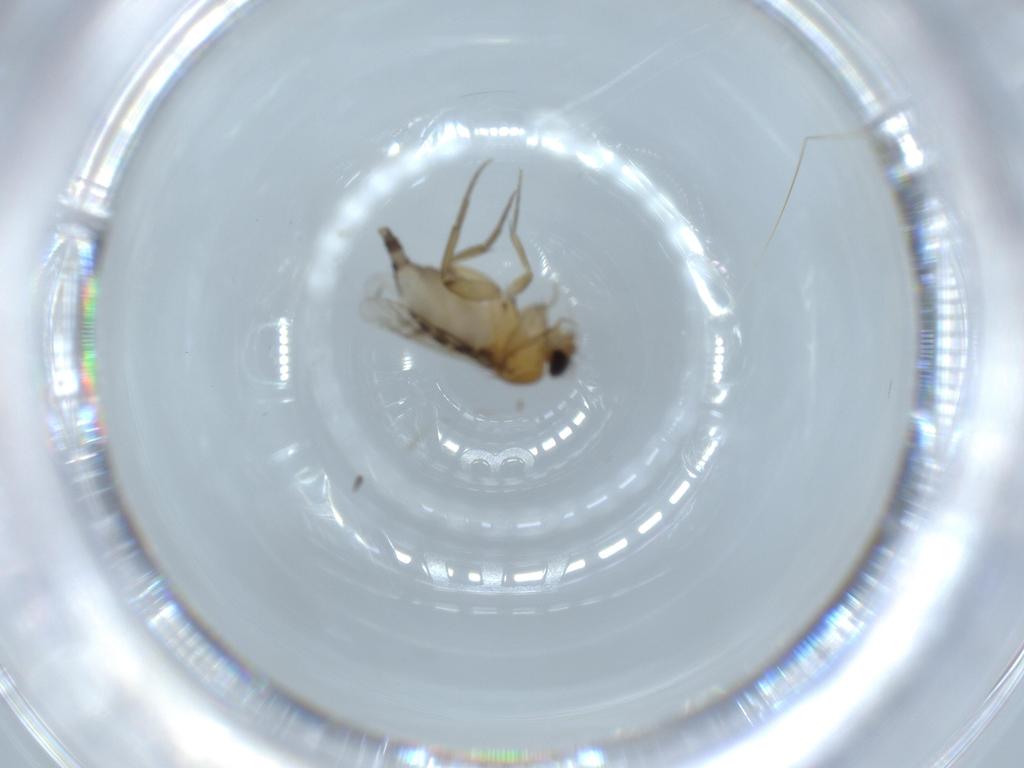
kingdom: Animalia
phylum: Arthropoda
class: Insecta
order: Diptera
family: Phoridae
